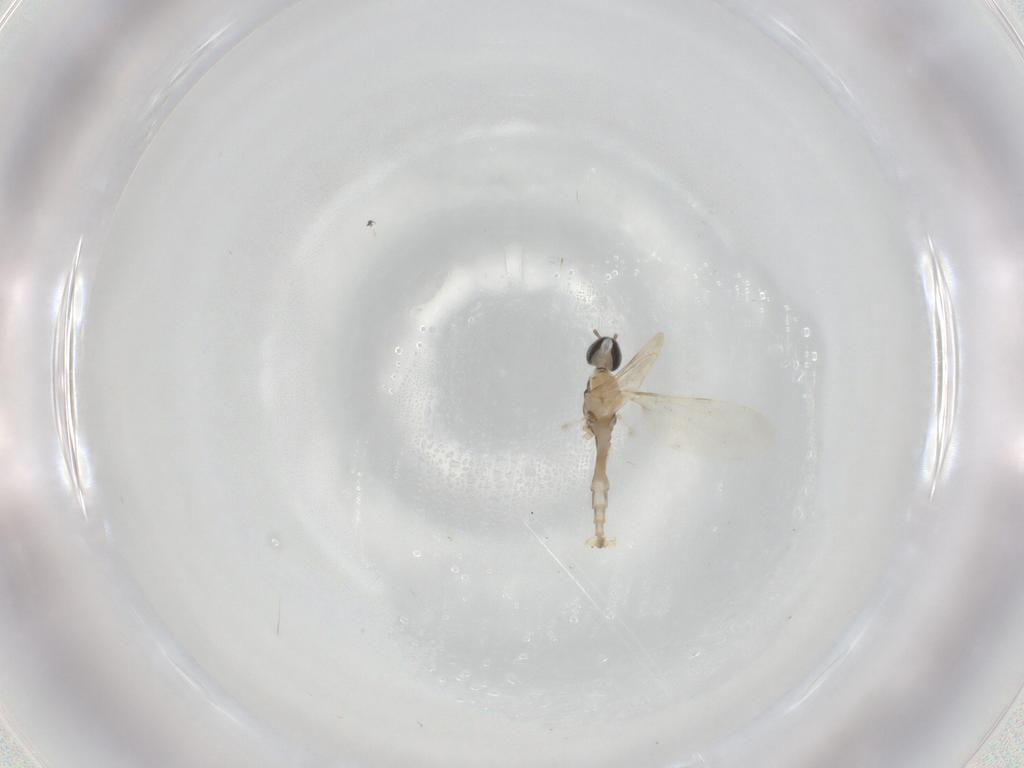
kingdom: Animalia
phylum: Arthropoda
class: Insecta
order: Diptera
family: Cecidomyiidae
